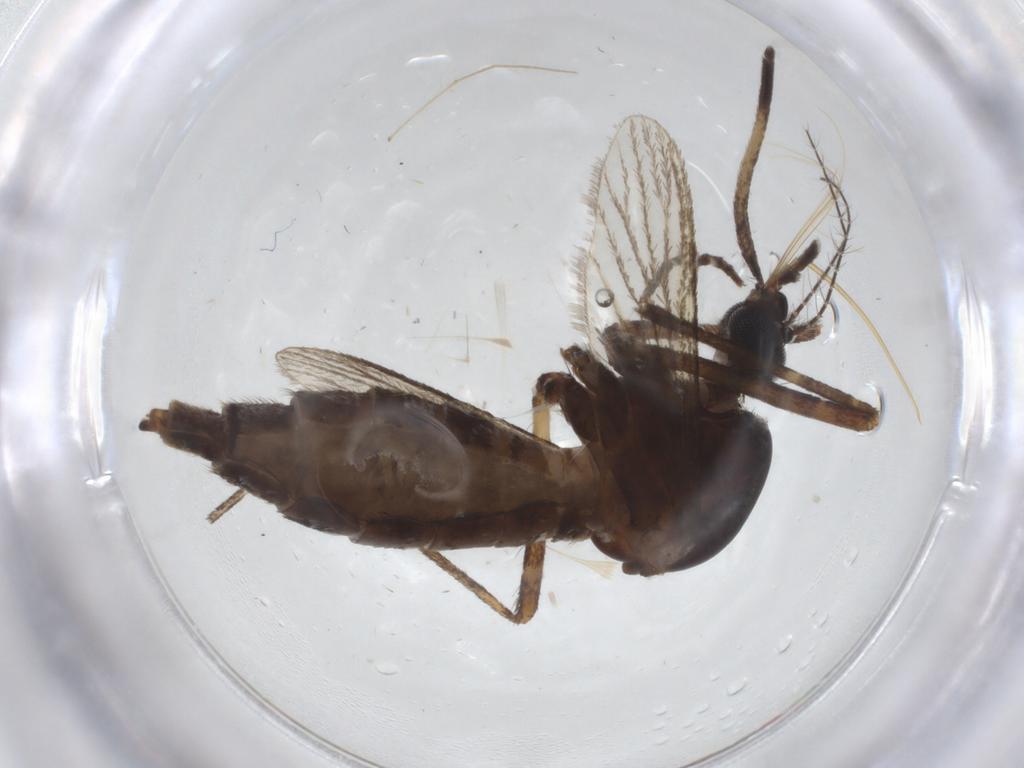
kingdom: Animalia
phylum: Arthropoda
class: Insecta
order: Diptera
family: Phoridae
